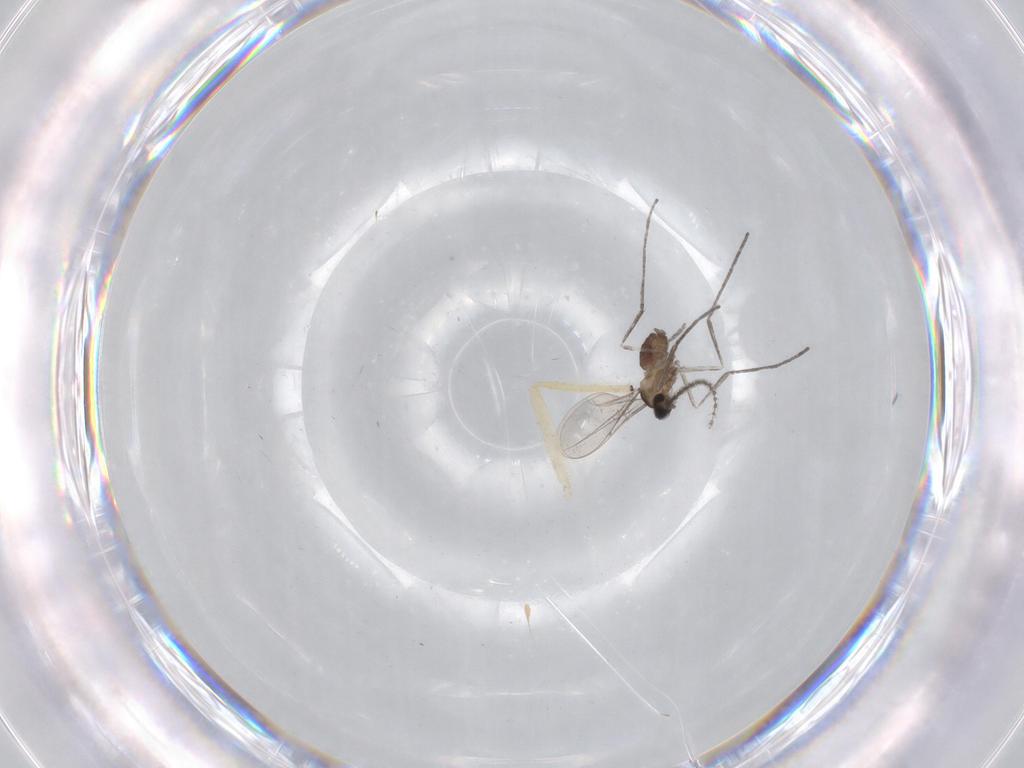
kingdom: Animalia
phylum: Arthropoda
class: Insecta
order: Diptera
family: Cecidomyiidae
